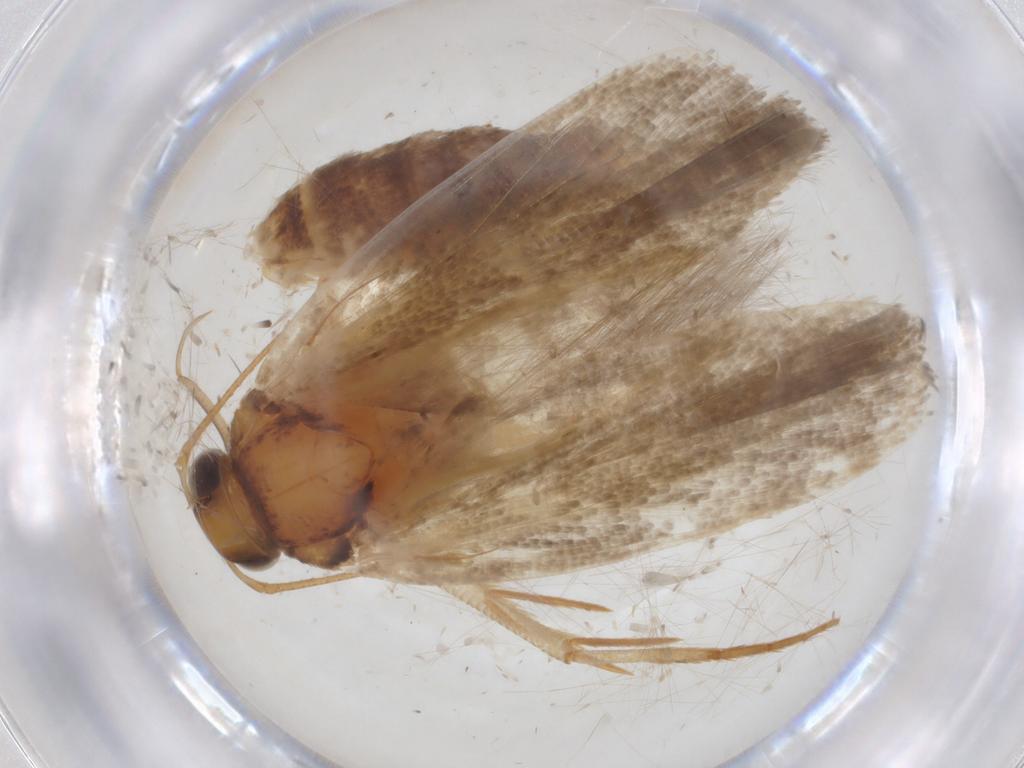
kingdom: Animalia
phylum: Arthropoda
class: Insecta
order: Lepidoptera
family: Gelechiidae
